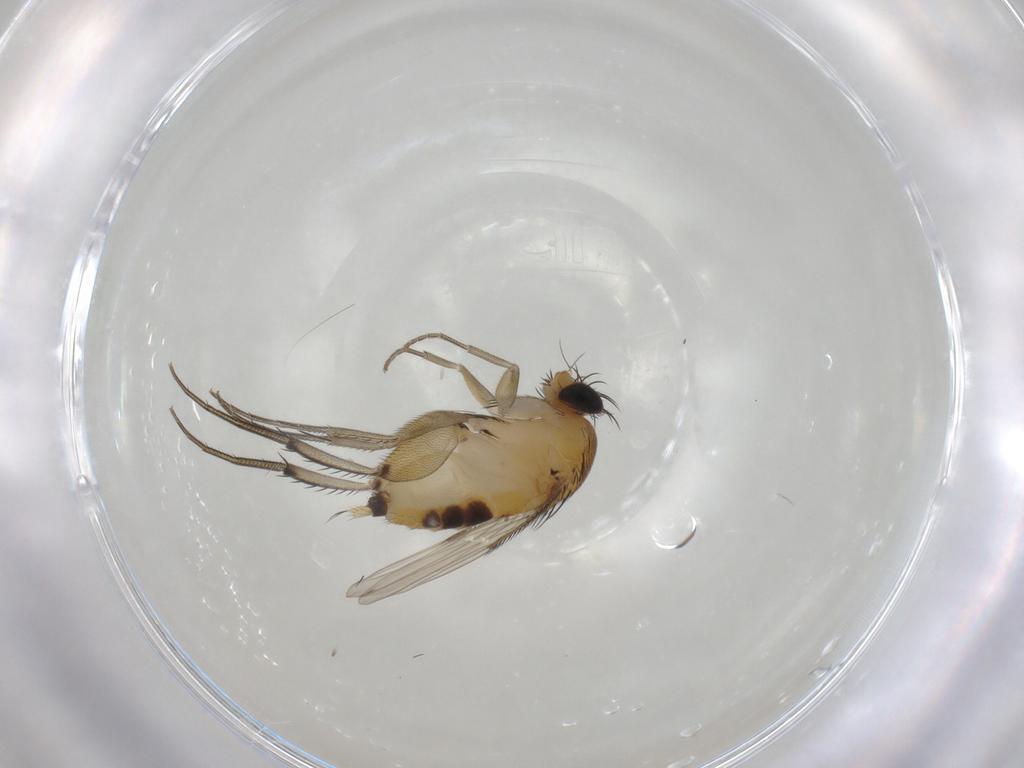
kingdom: Animalia
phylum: Arthropoda
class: Insecta
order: Diptera
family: Phoridae
